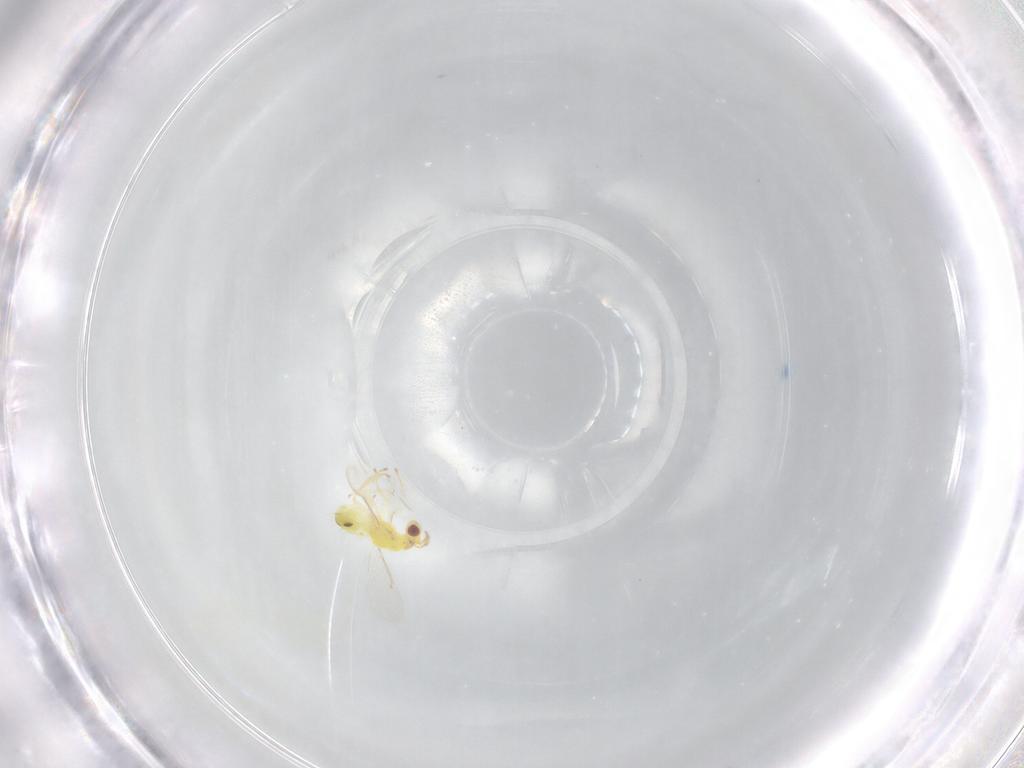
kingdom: Animalia
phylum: Arthropoda
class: Insecta
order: Hymenoptera
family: Eulophidae
